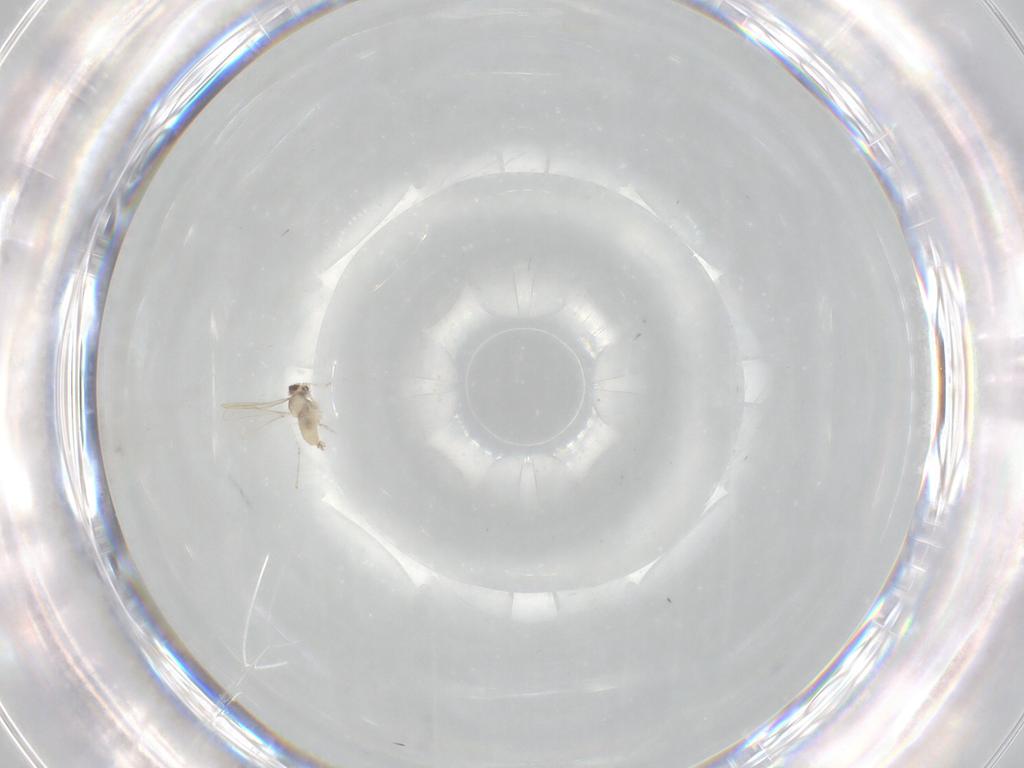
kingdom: Animalia
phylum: Arthropoda
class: Insecta
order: Diptera
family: Cecidomyiidae
